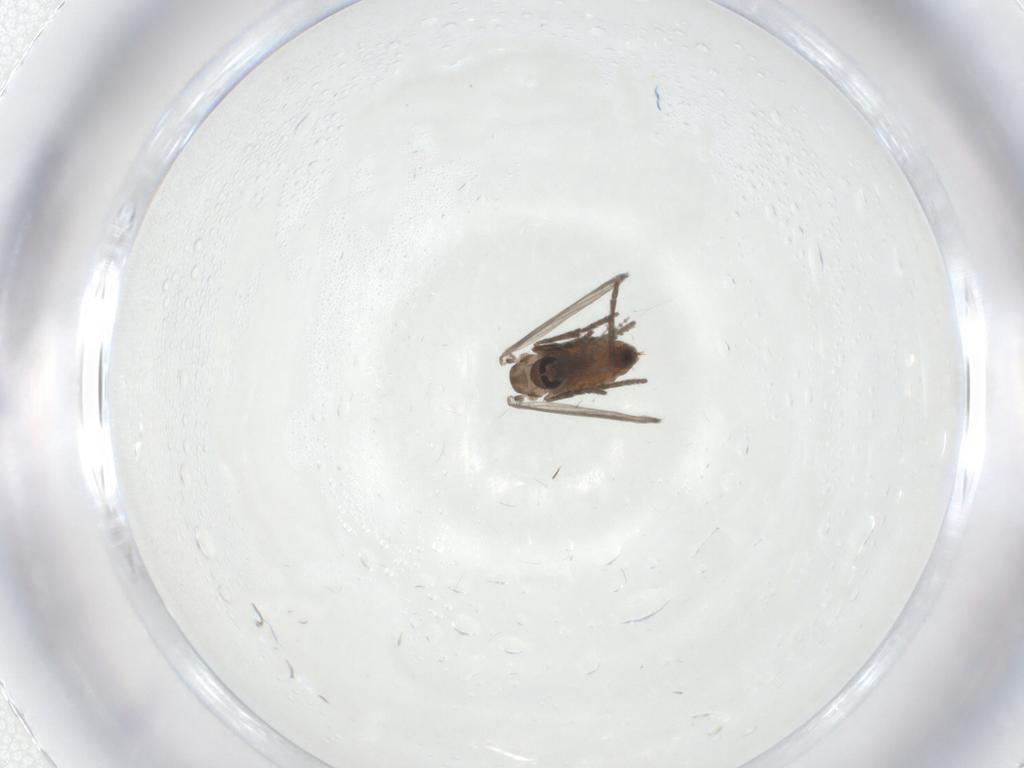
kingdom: Animalia
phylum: Arthropoda
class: Insecta
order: Diptera
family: Psychodidae
